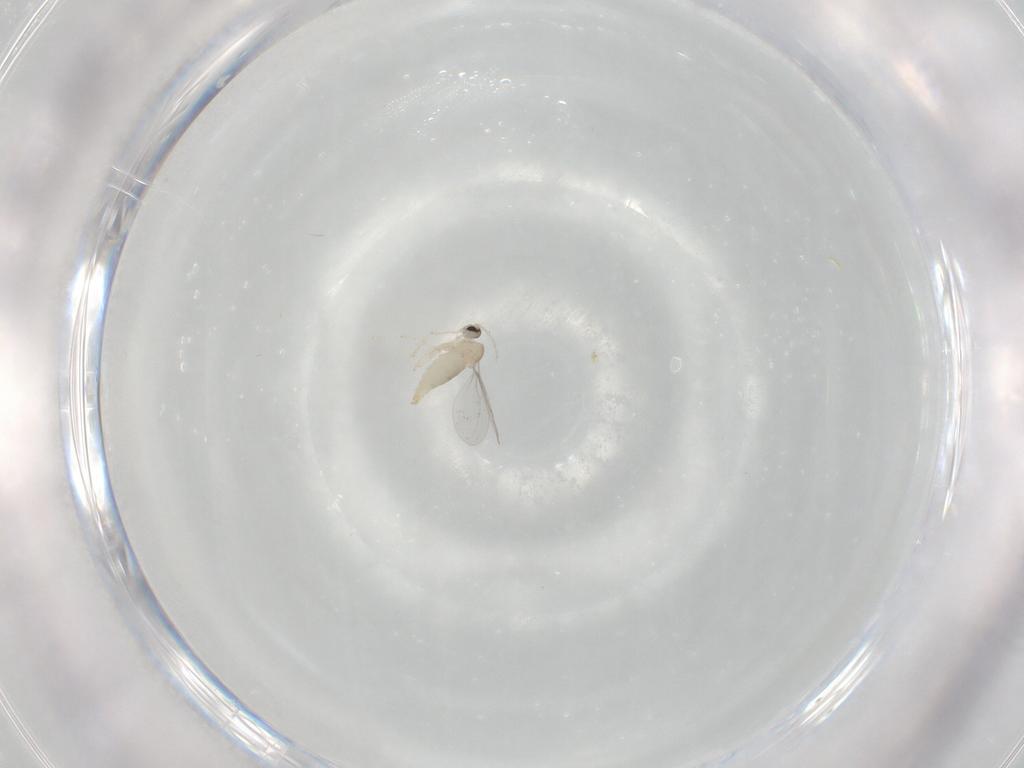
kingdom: Animalia
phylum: Arthropoda
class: Insecta
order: Diptera
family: Cecidomyiidae
